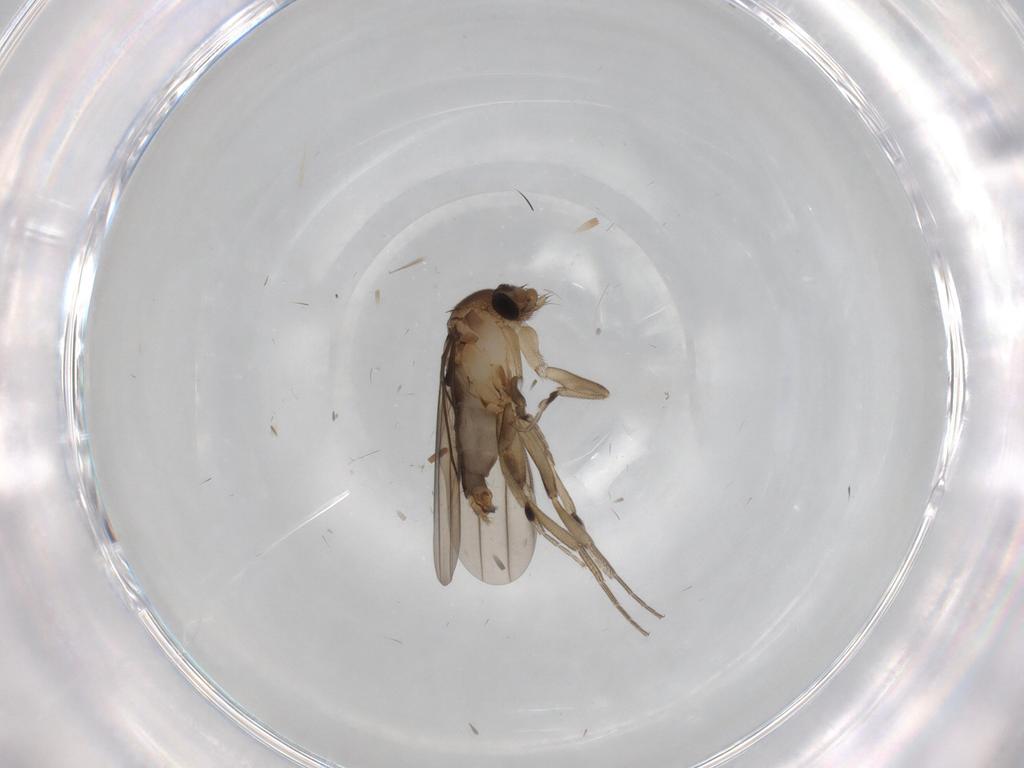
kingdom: Animalia
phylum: Arthropoda
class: Insecta
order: Diptera
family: Phoridae
